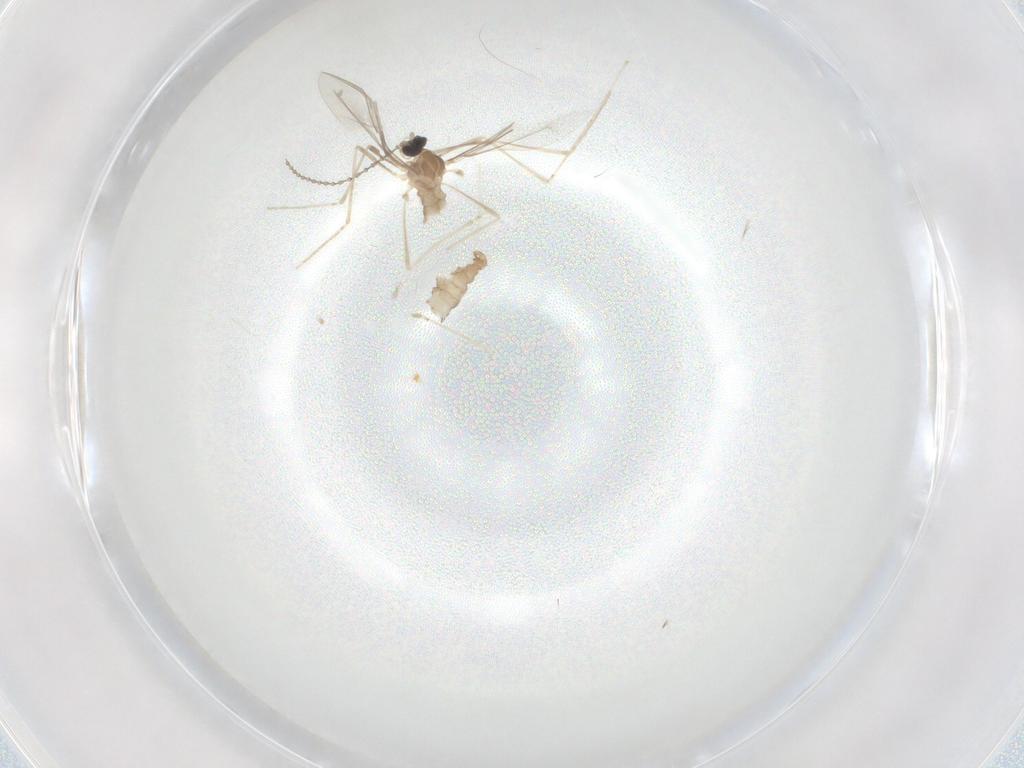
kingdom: Animalia
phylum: Arthropoda
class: Insecta
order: Diptera
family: Cecidomyiidae
